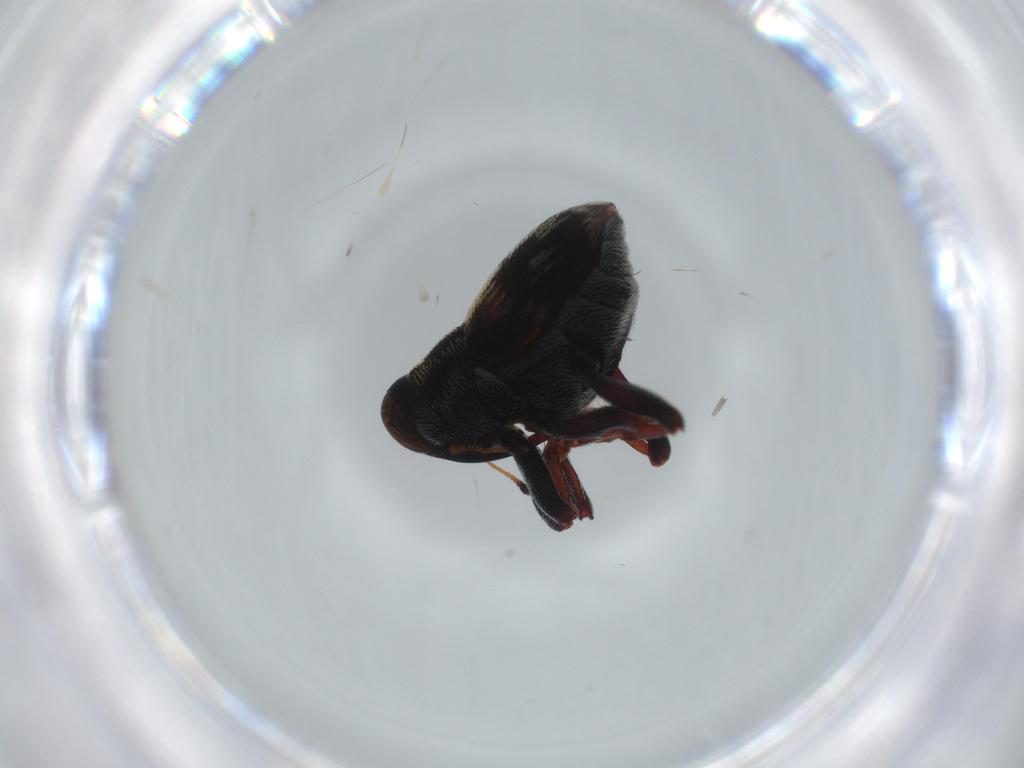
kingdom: Animalia
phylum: Arthropoda
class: Insecta
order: Coleoptera
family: Curculionidae
